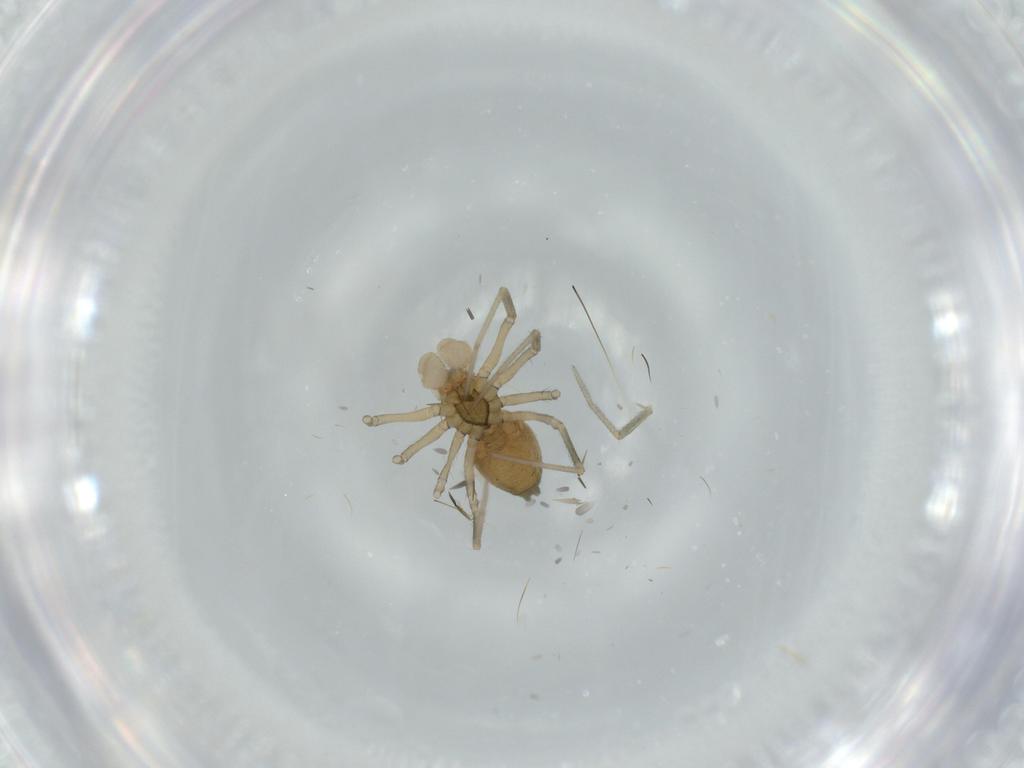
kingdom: Animalia
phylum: Arthropoda
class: Arachnida
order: Araneae
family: Linyphiidae
